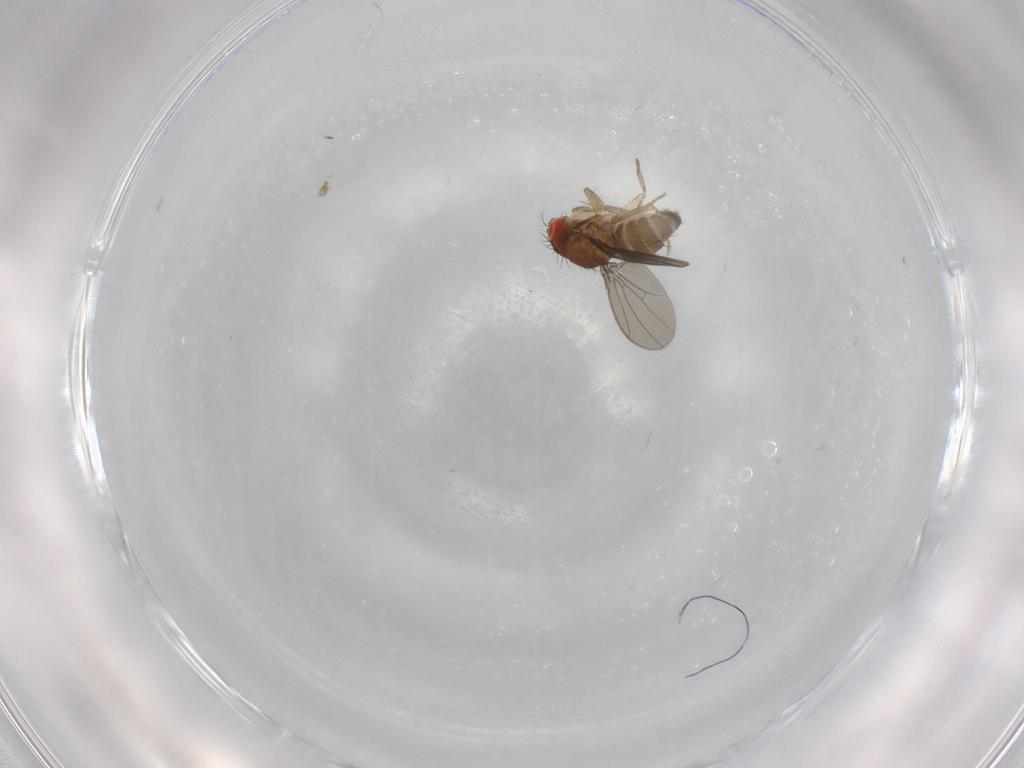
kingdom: Animalia
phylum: Arthropoda
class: Insecta
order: Diptera
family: Drosophilidae
